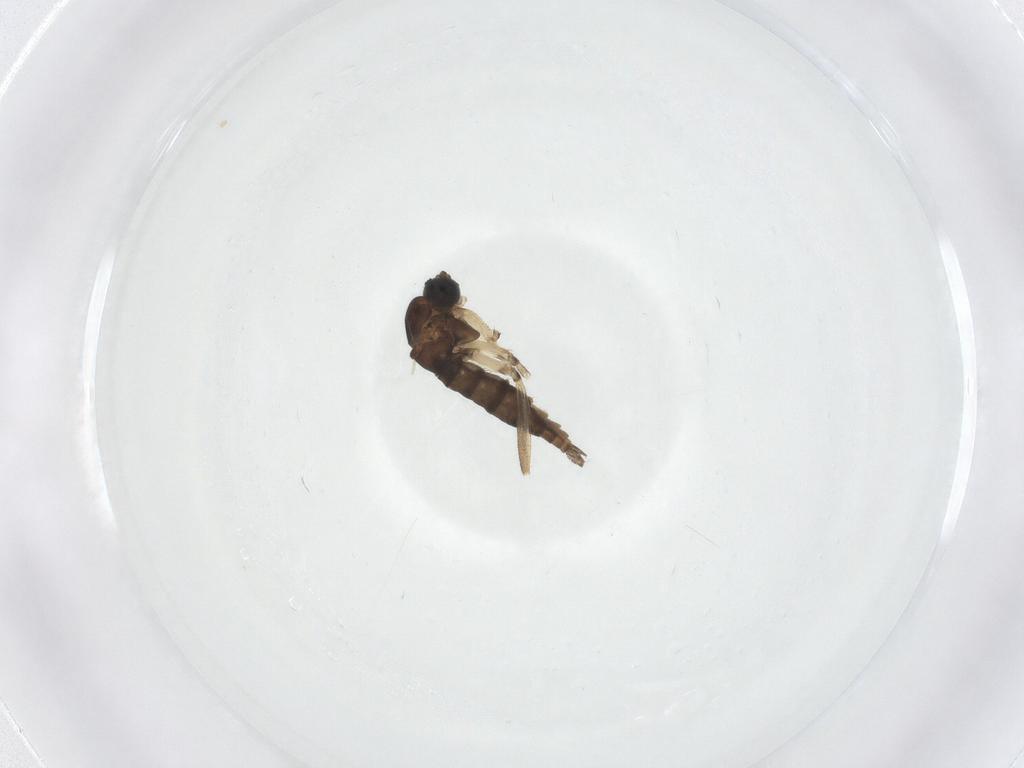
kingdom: Animalia
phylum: Arthropoda
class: Insecta
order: Diptera
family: Sciaridae
